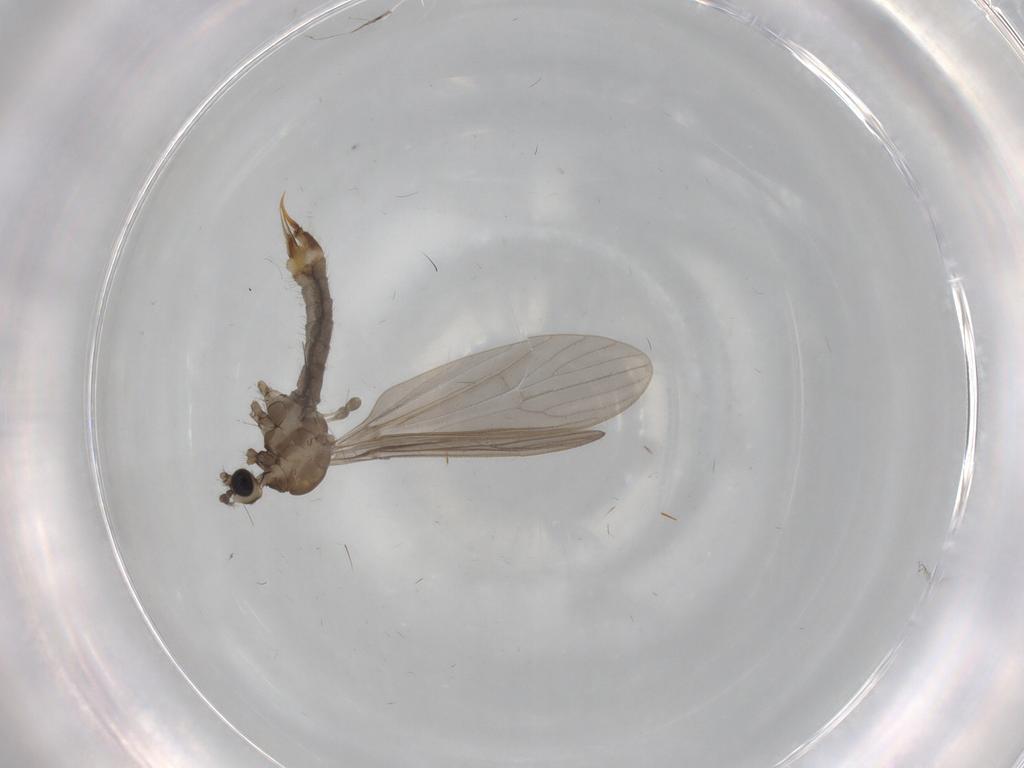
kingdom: Animalia
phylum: Arthropoda
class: Insecta
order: Diptera
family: Limoniidae
